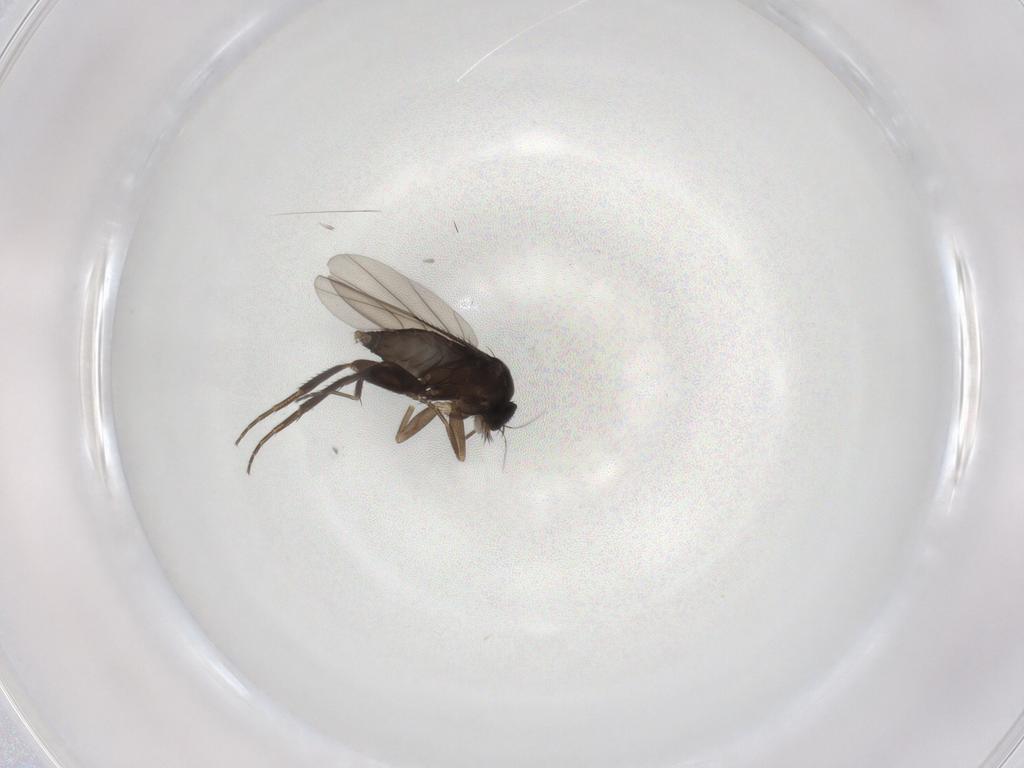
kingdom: Animalia
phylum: Arthropoda
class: Insecta
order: Diptera
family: Phoridae
